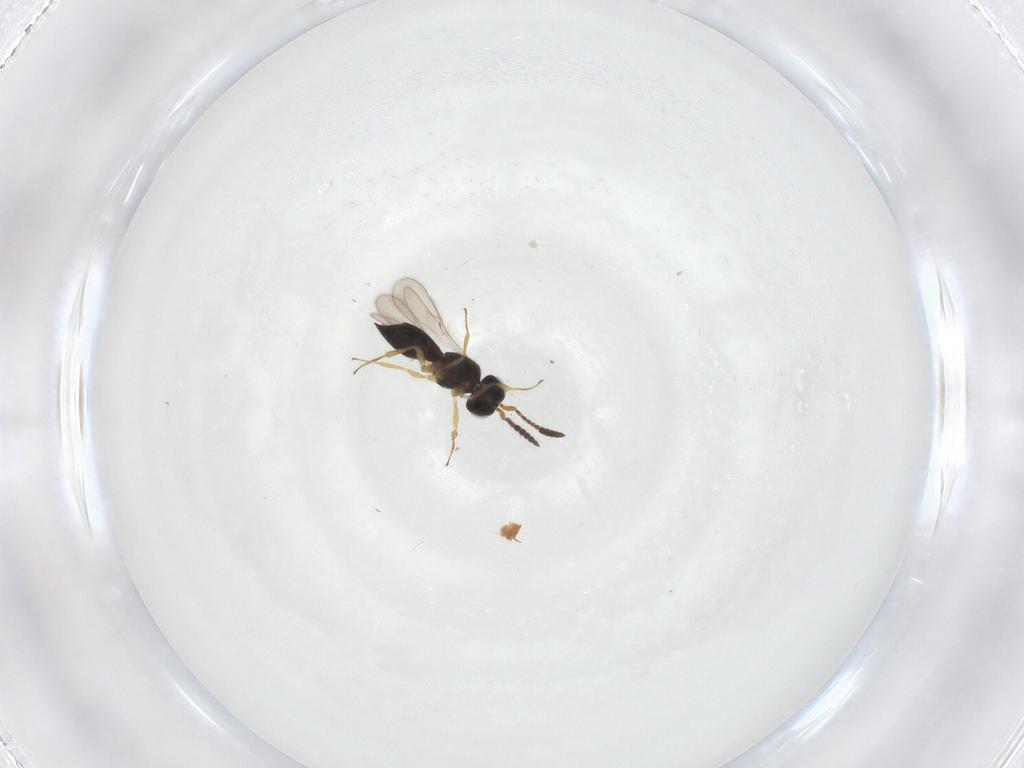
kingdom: Animalia
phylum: Arthropoda
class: Insecta
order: Hymenoptera
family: Scelionidae
